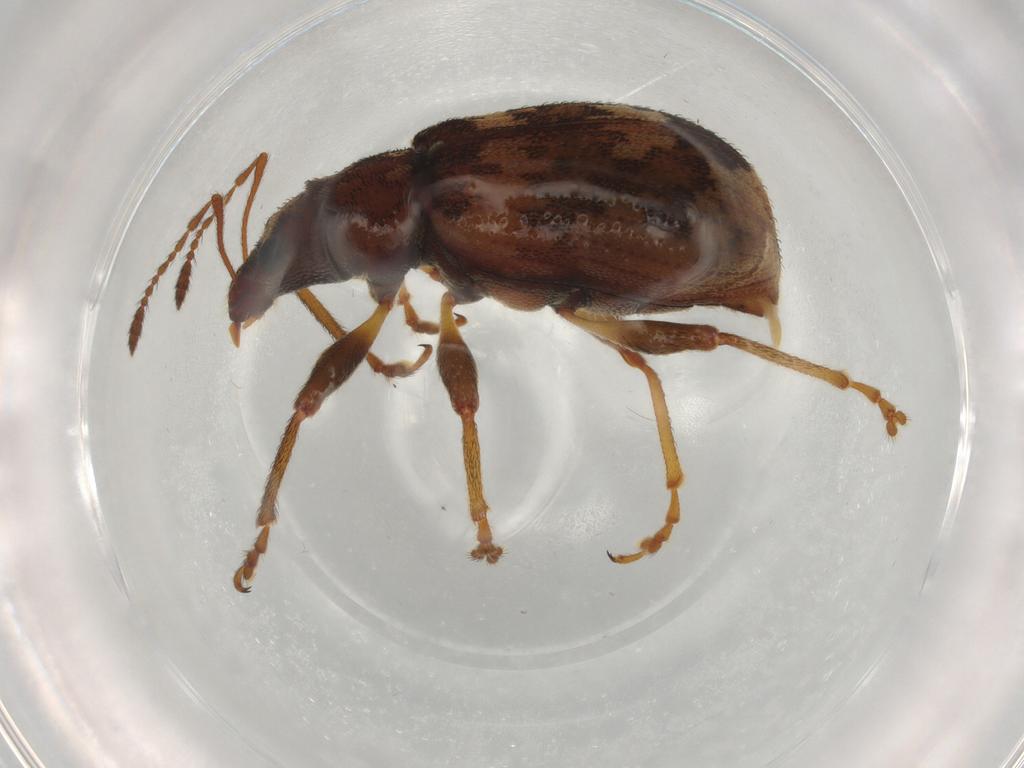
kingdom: Animalia
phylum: Arthropoda
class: Insecta
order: Coleoptera
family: Curculionidae
